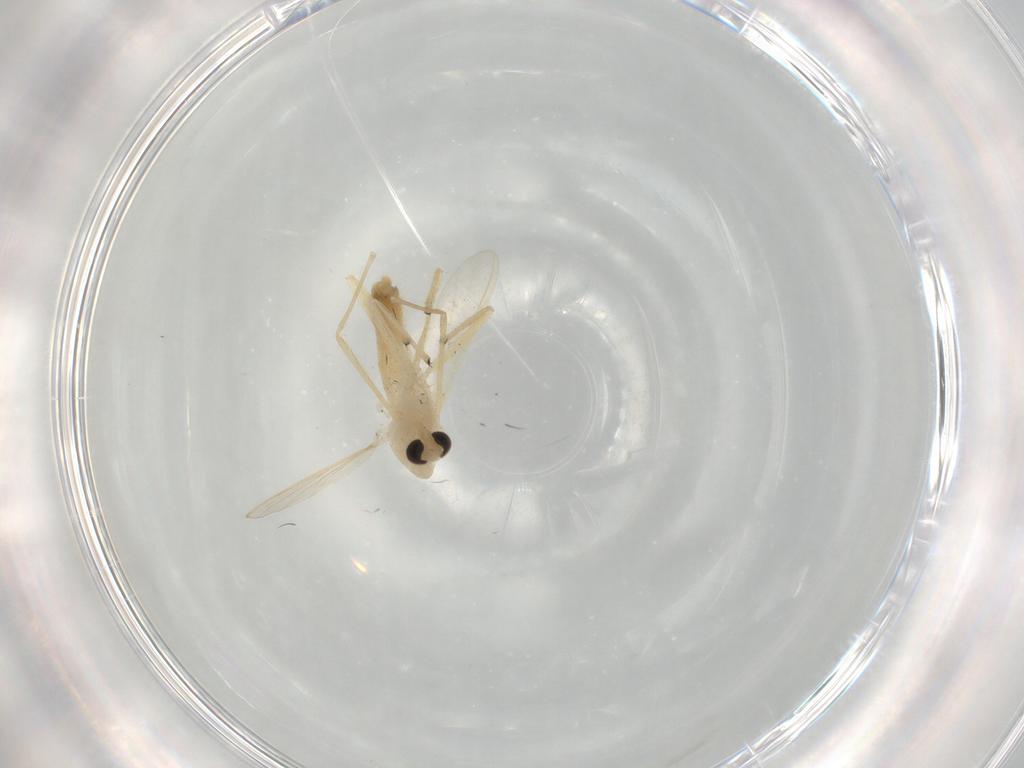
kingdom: Animalia
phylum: Arthropoda
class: Insecta
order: Diptera
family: Chironomidae
